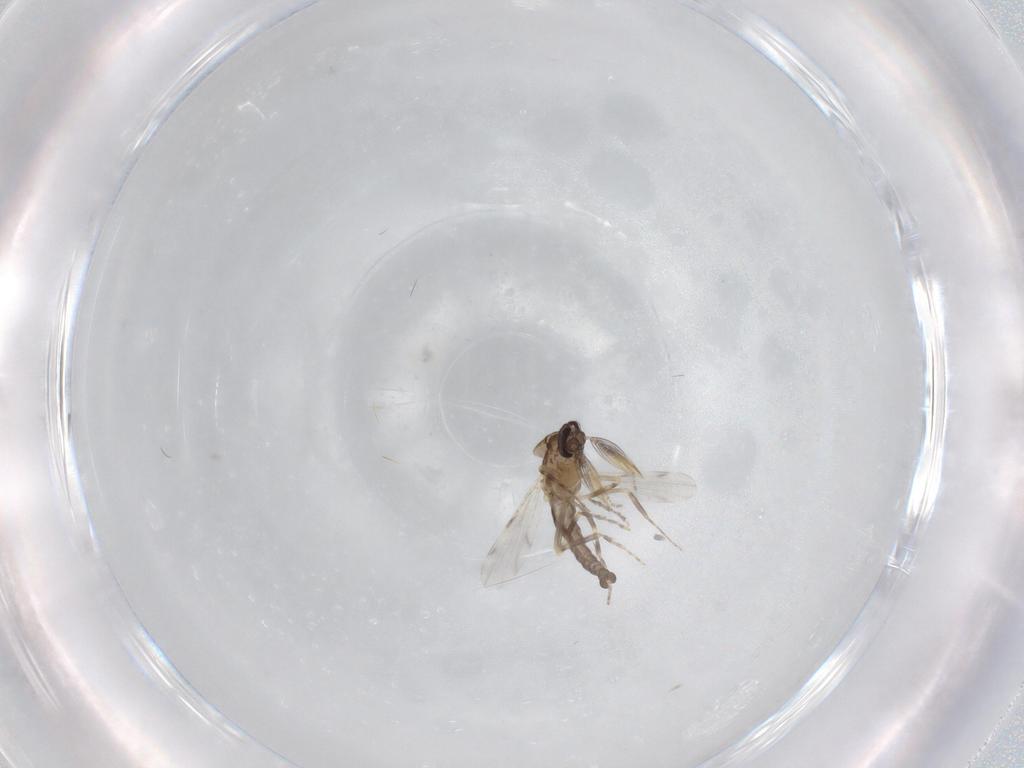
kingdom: Animalia
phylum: Arthropoda
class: Insecta
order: Diptera
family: Ceratopogonidae
